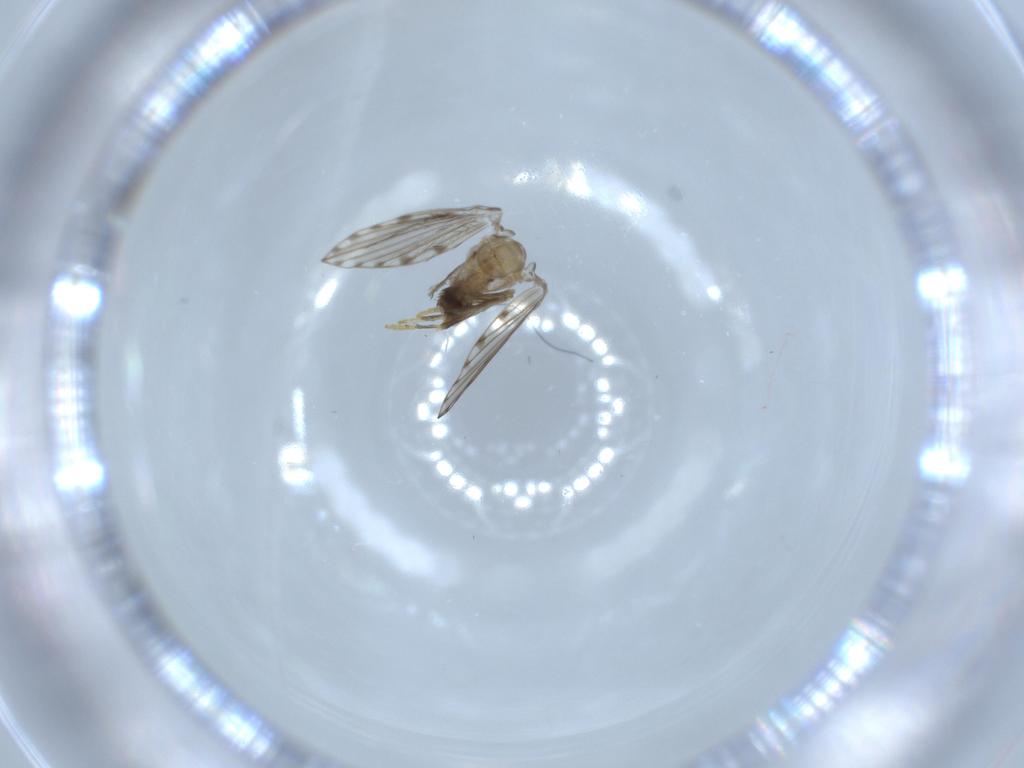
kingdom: Animalia
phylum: Arthropoda
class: Insecta
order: Diptera
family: Psychodidae
